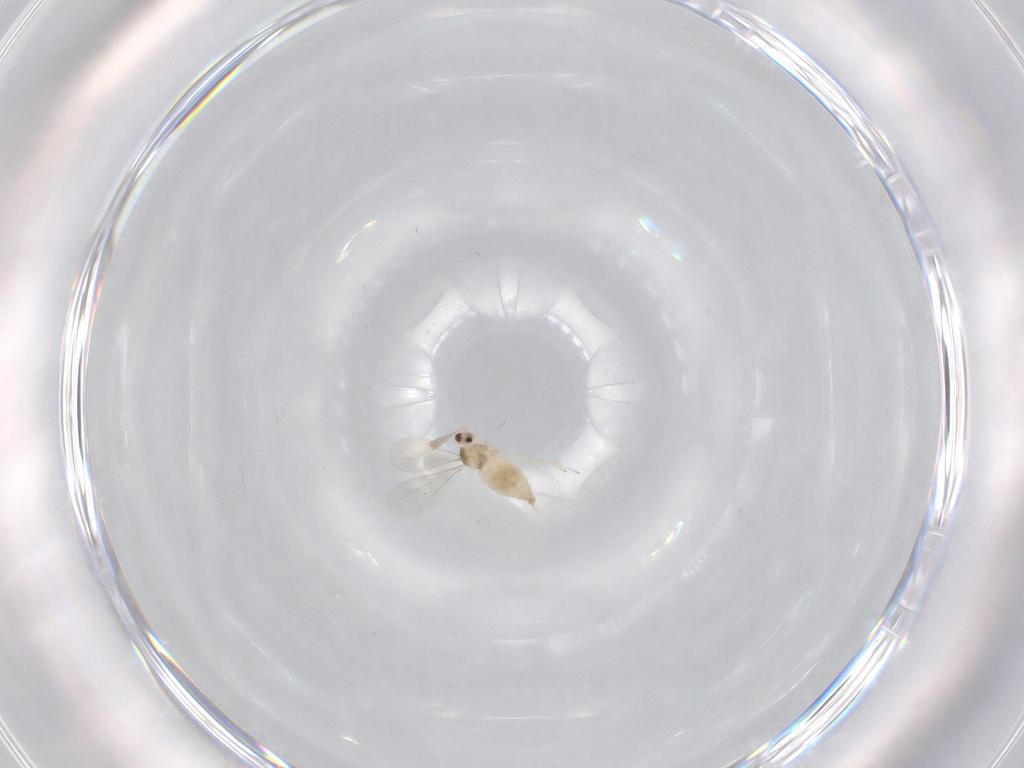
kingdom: Animalia
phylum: Arthropoda
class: Insecta
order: Diptera
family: Cecidomyiidae
